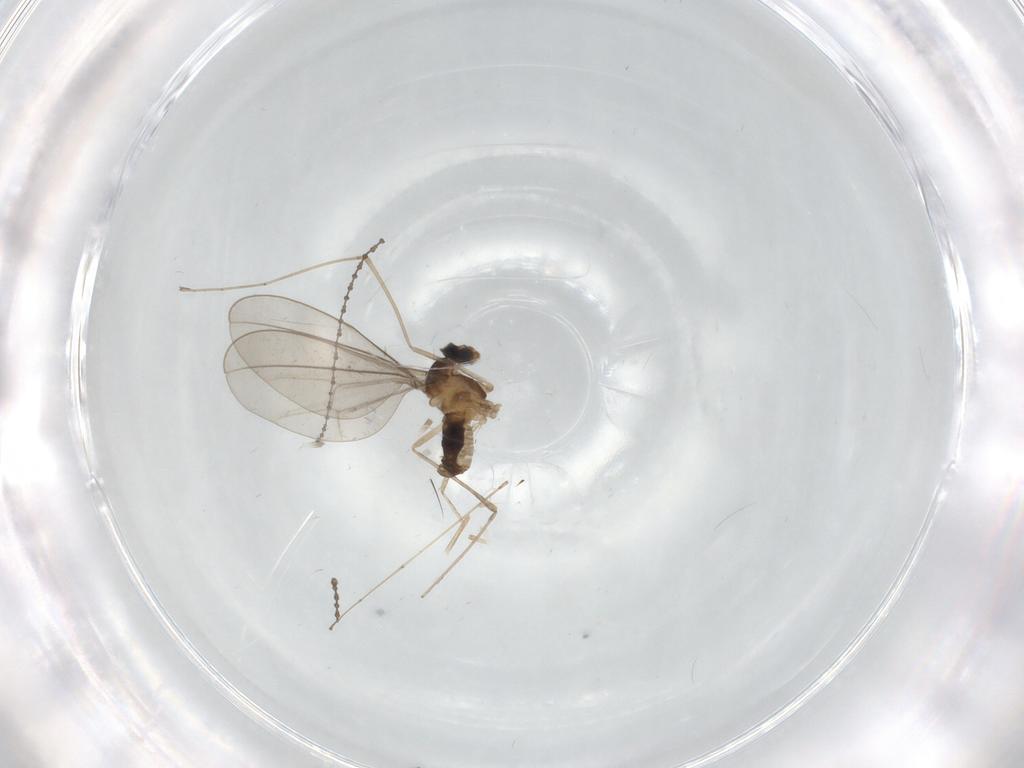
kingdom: Animalia
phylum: Arthropoda
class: Insecta
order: Diptera
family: Cecidomyiidae
